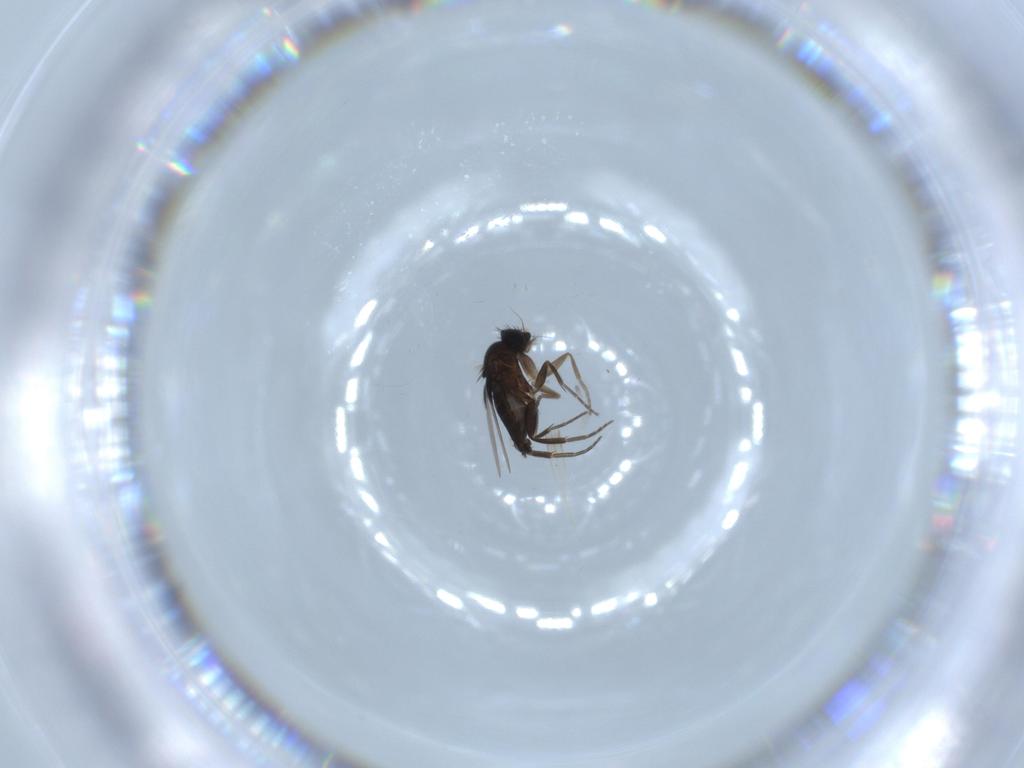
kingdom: Animalia
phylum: Arthropoda
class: Insecta
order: Diptera
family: Phoridae
